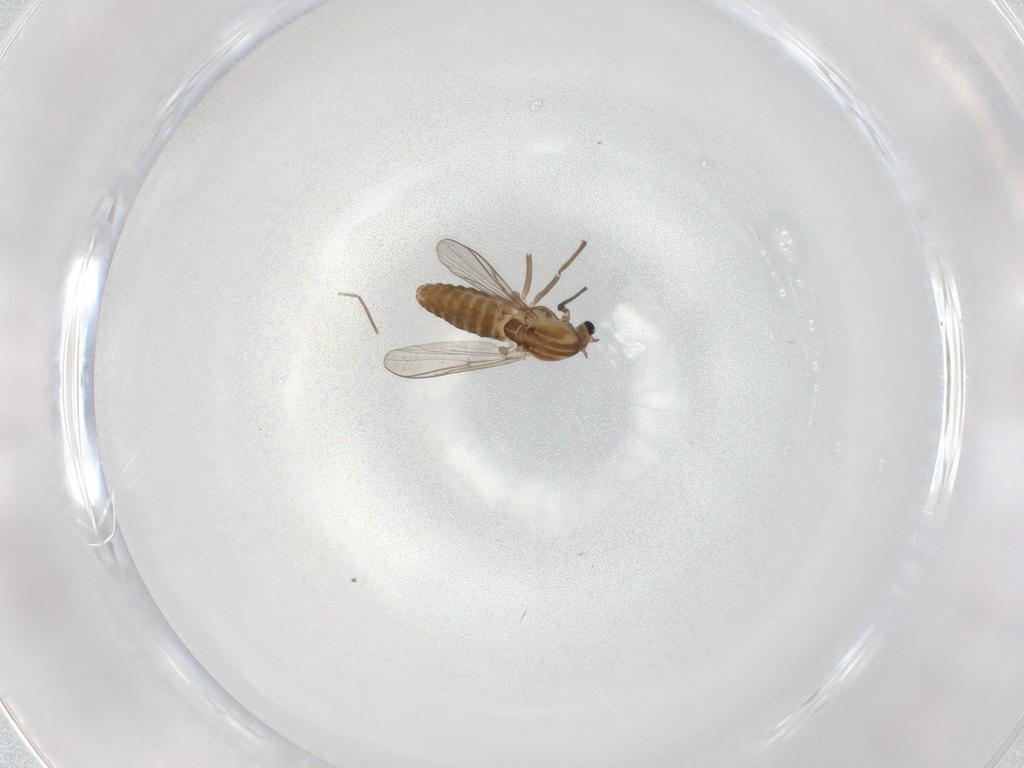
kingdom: Animalia
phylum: Arthropoda
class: Insecta
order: Diptera
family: Chironomidae
